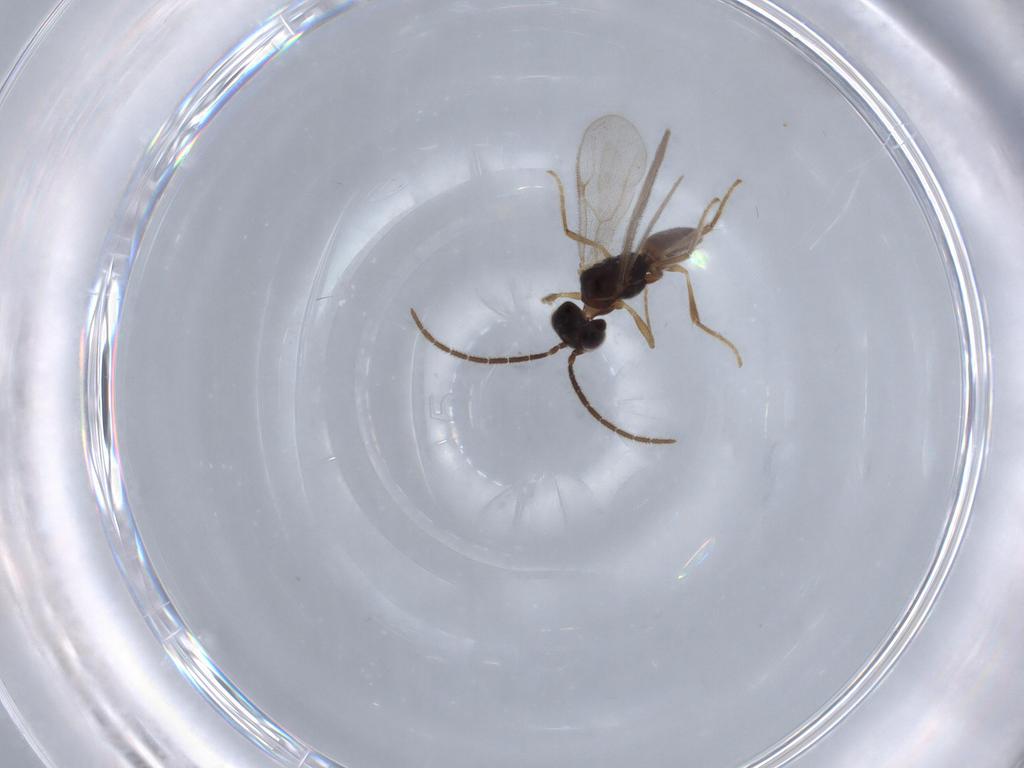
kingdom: Animalia
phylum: Arthropoda
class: Insecta
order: Hymenoptera
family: Dryinidae
